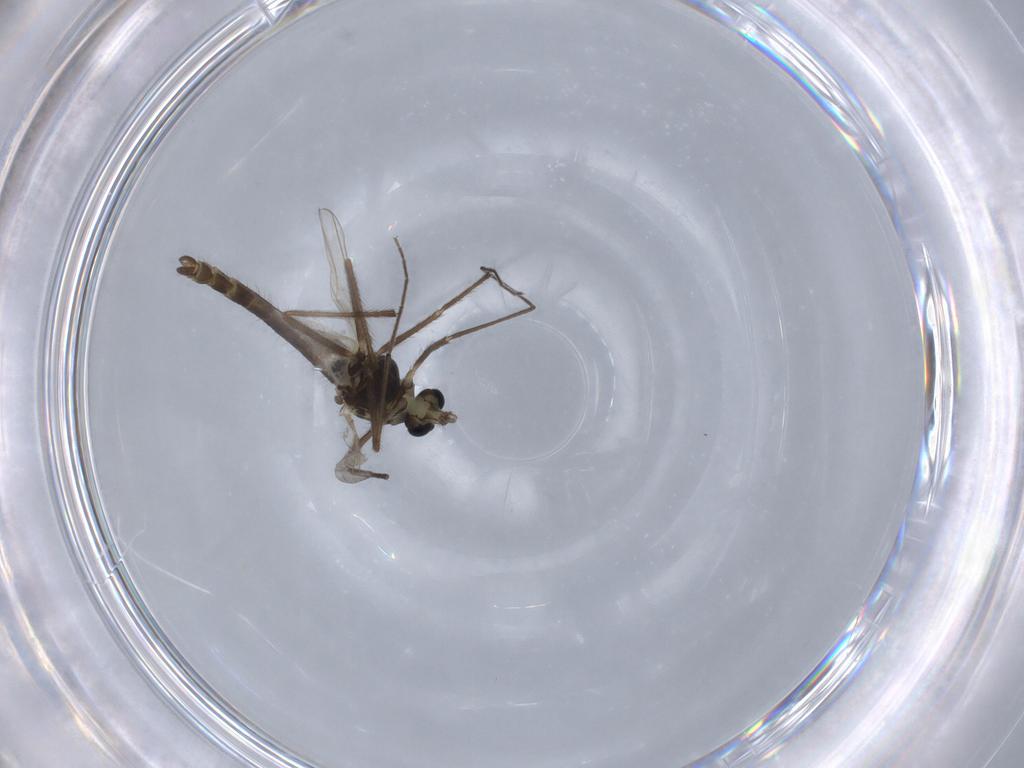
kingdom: Animalia
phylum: Arthropoda
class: Insecta
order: Diptera
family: Chironomidae
